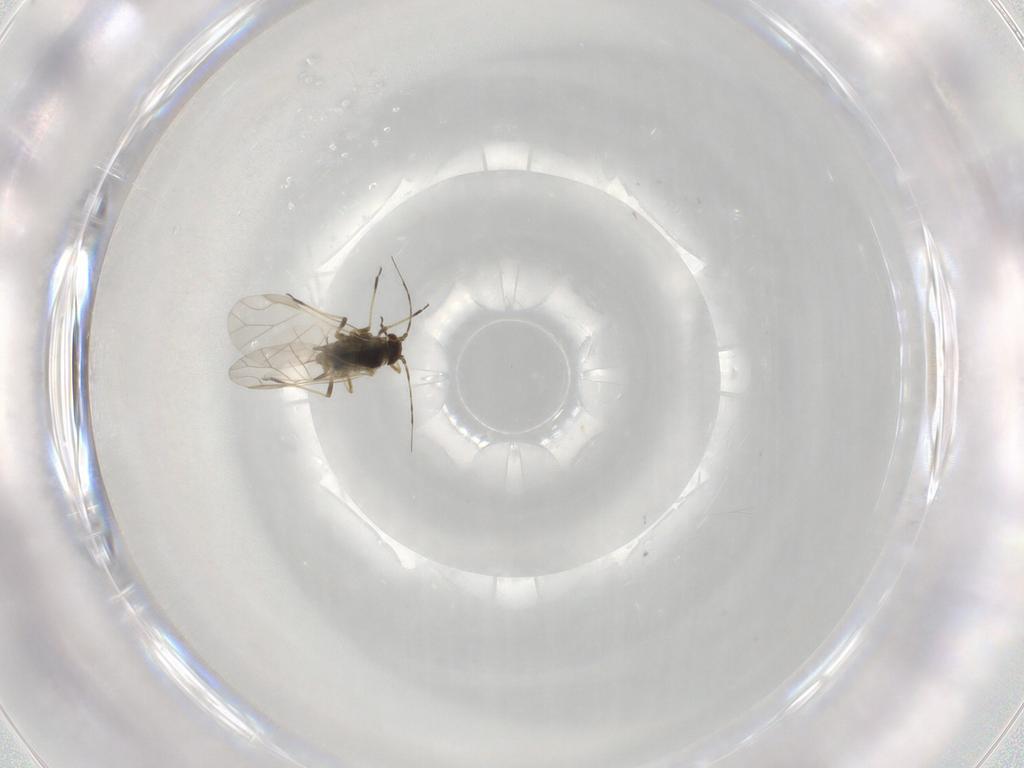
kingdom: Animalia
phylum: Arthropoda
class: Insecta
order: Hemiptera
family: Aphididae
